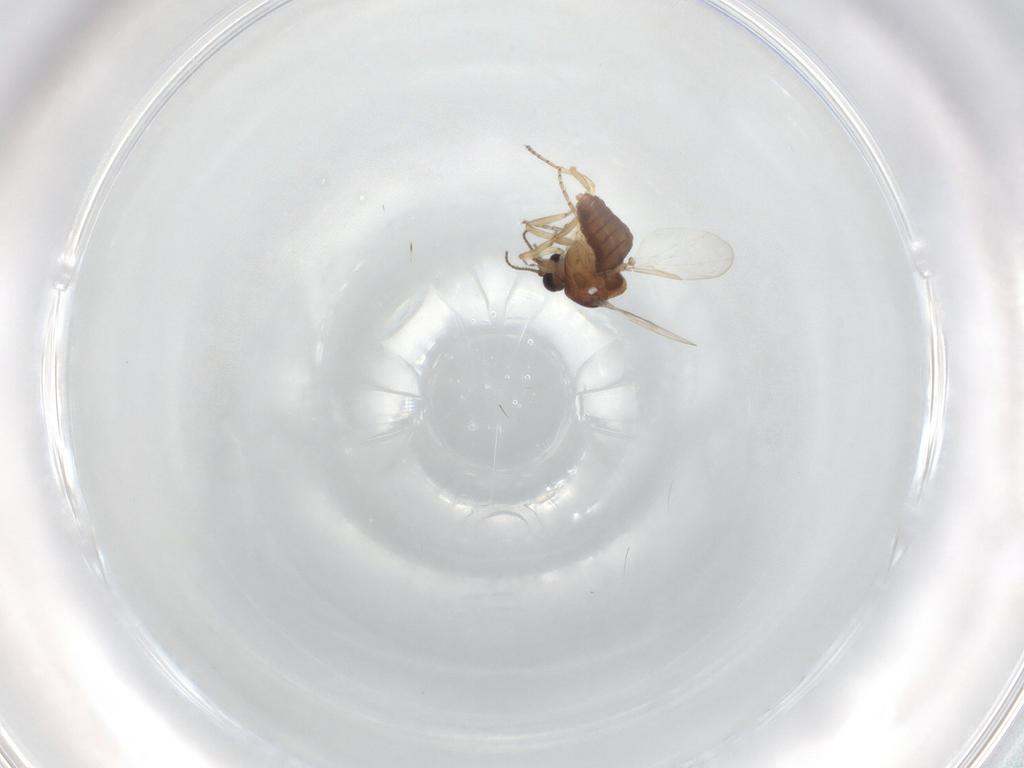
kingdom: Animalia
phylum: Arthropoda
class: Insecta
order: Diptera
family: Ceratopogonidae
